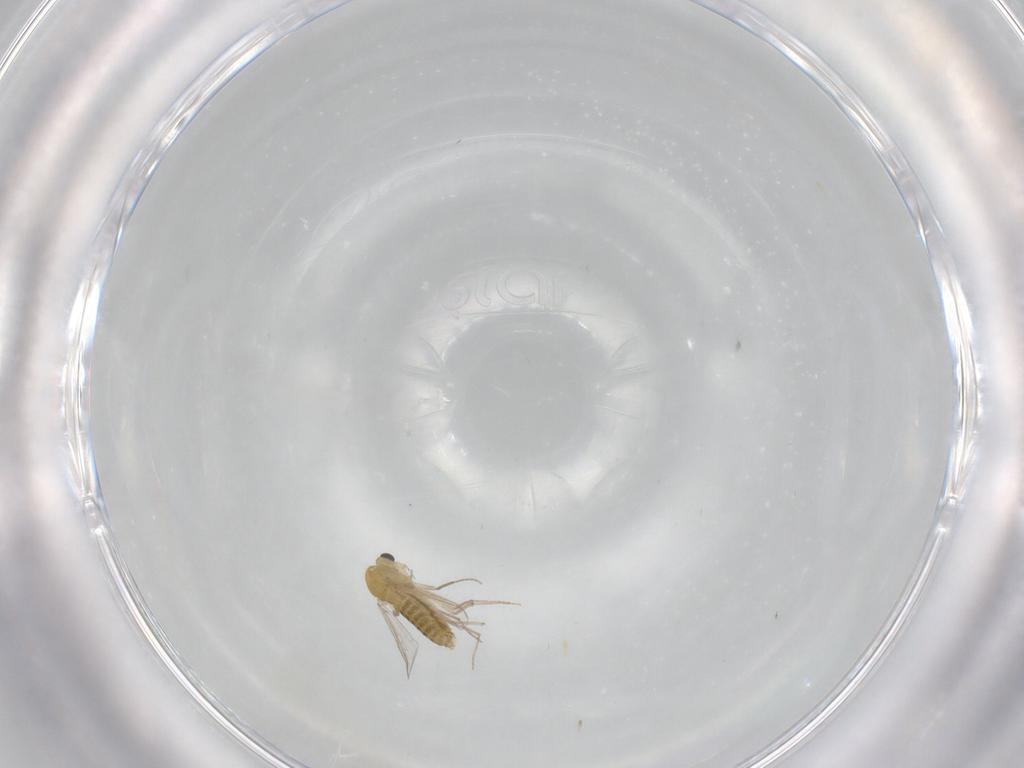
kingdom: Animalia
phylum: Arthropoda
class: Insecta
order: Diptera
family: Chironomidae
